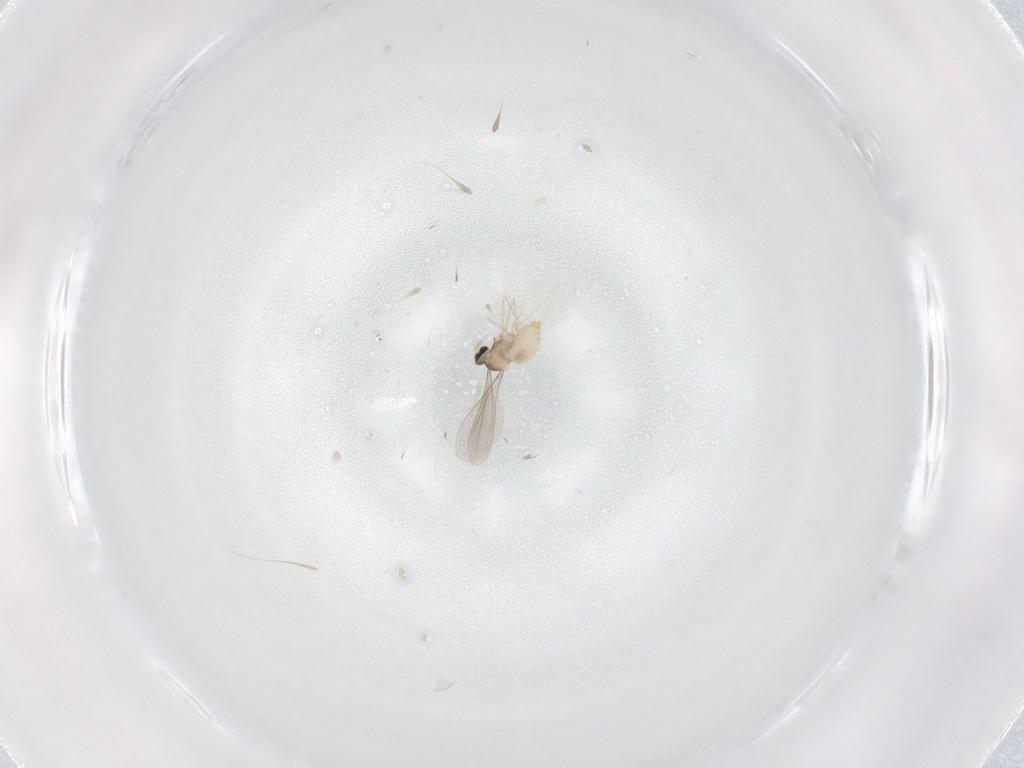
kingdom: Animalia
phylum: Arthropoda
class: Insecta
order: Diptera
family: Cecidomyiidae
